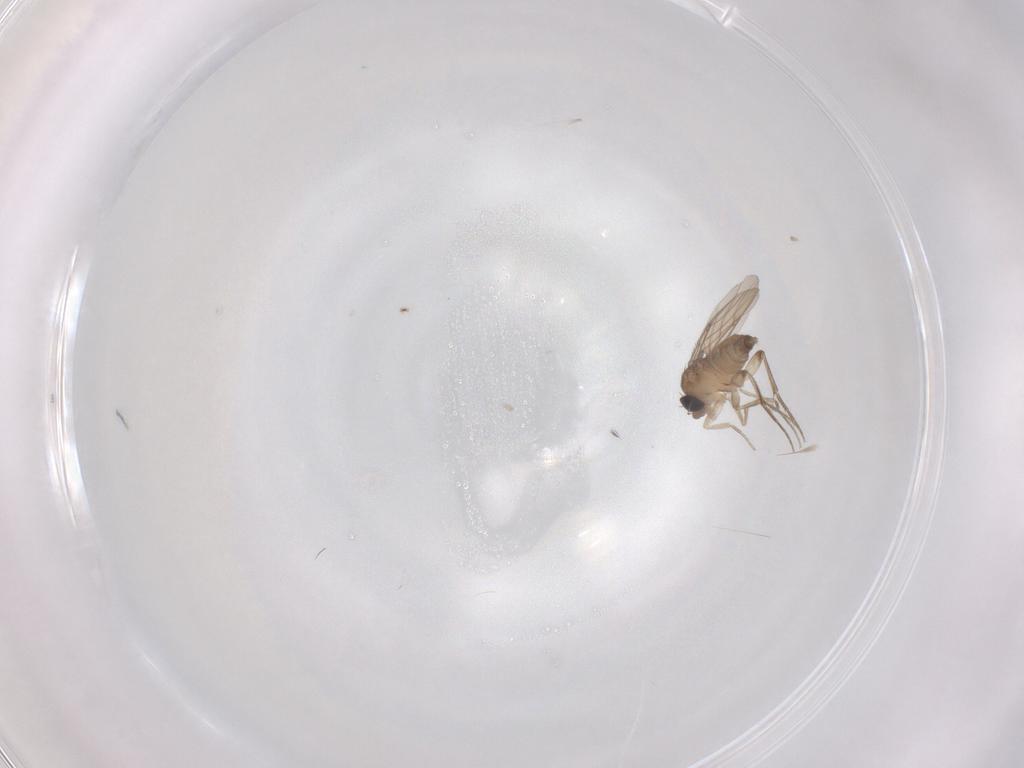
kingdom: Animalia
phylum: Arthropoda
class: Insecta
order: Diptera
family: Phoridae
